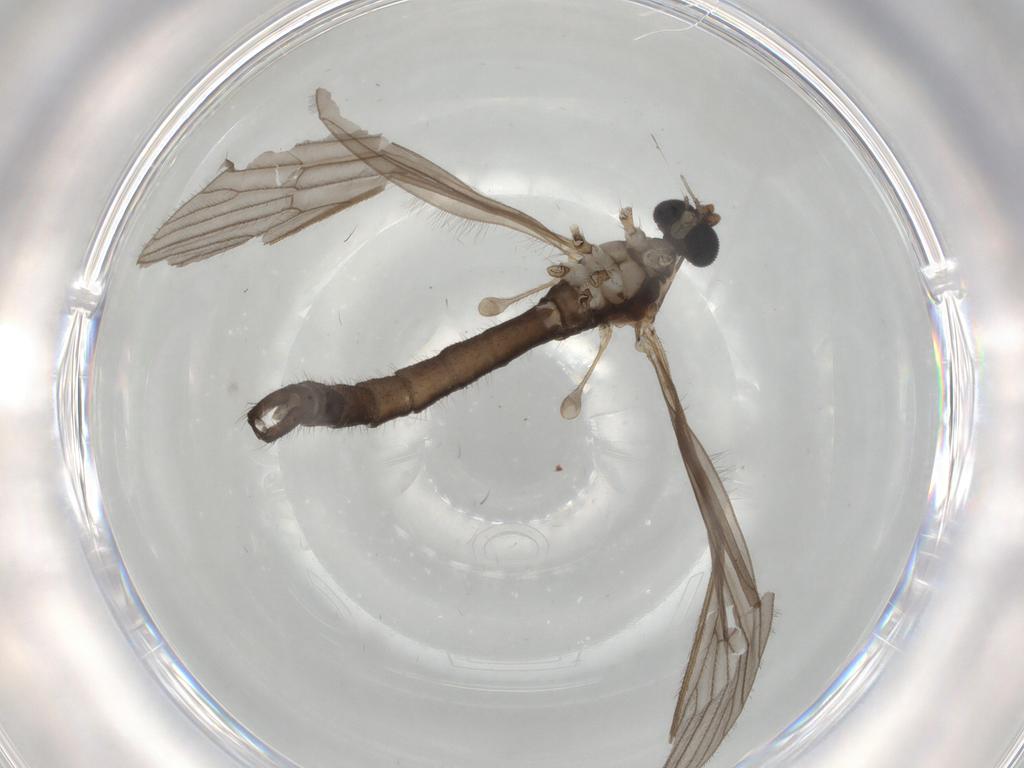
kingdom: Animalia
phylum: Arthropoda
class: Insecta
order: Diptera
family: Psychodidae
